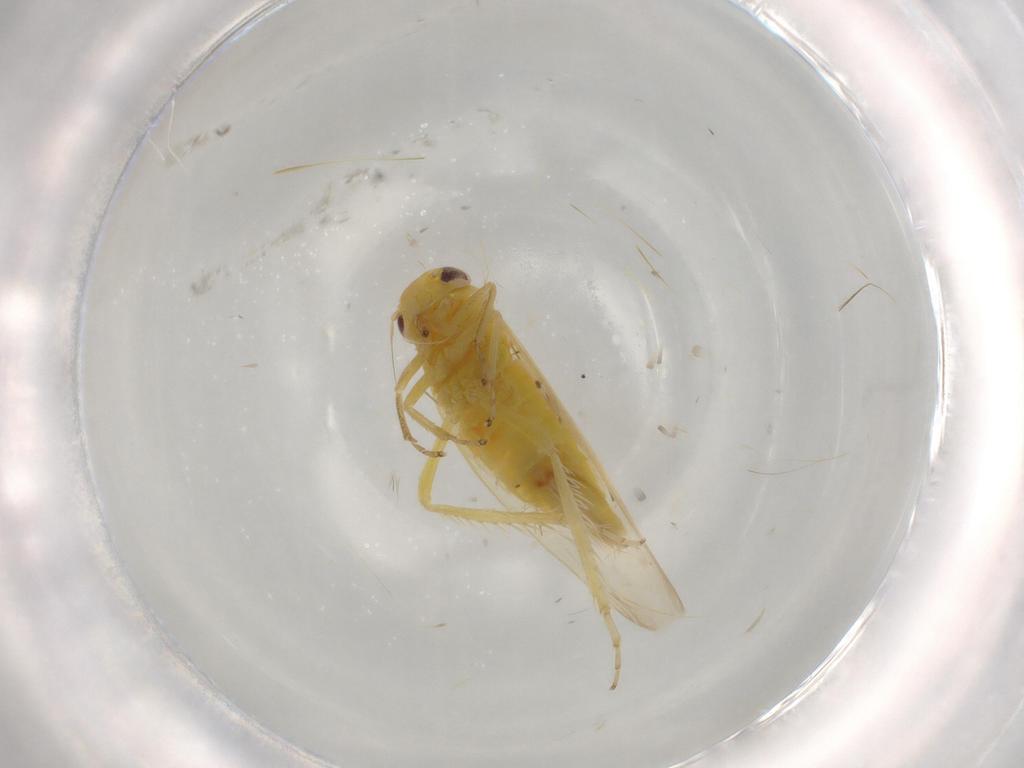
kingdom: Animalia
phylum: Arthropoda
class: Insecta
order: Hemiptera
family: Cicadellidae
